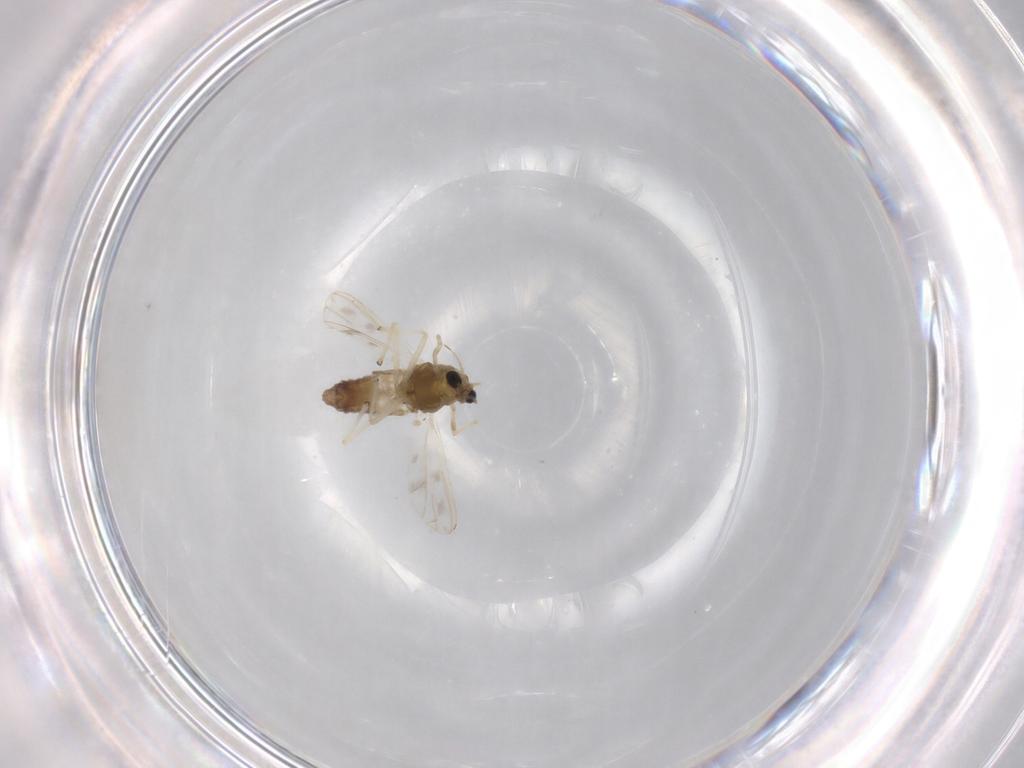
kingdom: Animalia
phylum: Arthropoda
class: Insecta
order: Diptera
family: Chironomidae
